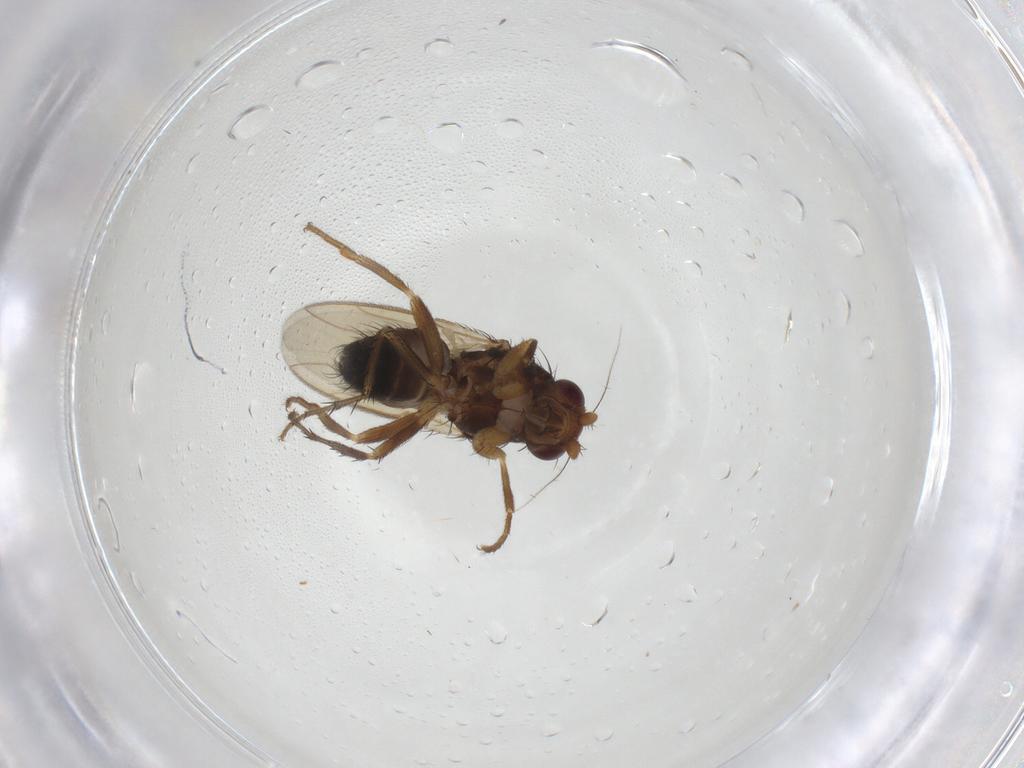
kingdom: Animalia
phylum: Arthropoda
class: Insecta
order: Diptera
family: Sphaeroceridae
